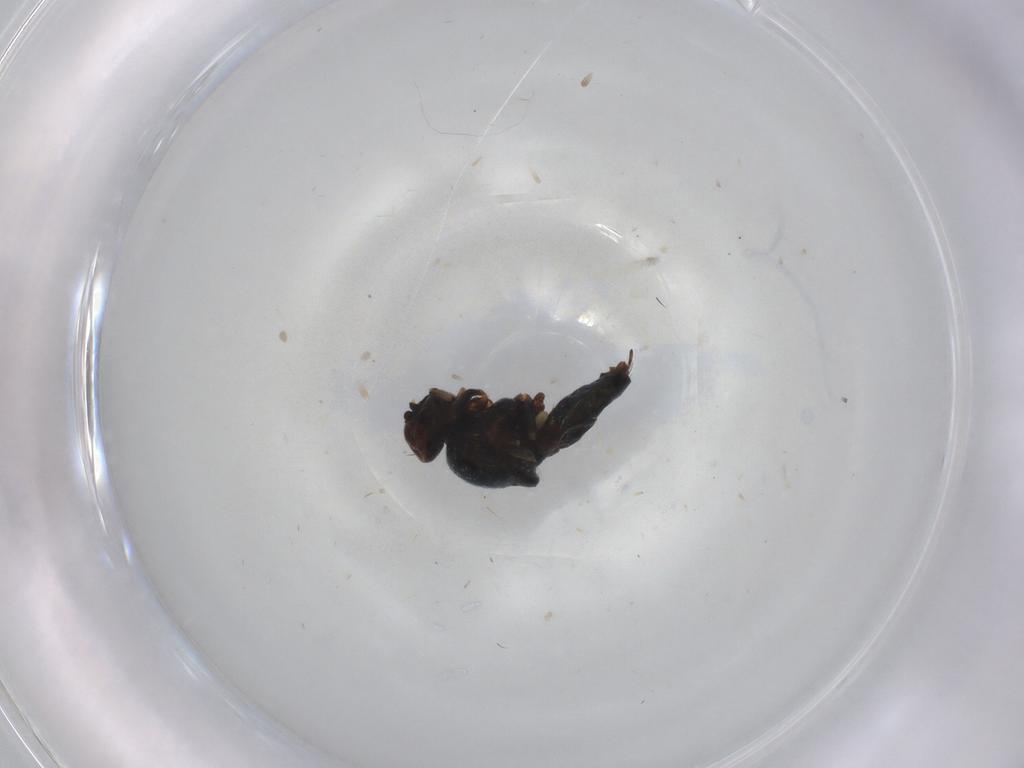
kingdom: Animalia
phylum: Arthropoda
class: Insecta
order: Diptera
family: Chloropidae
